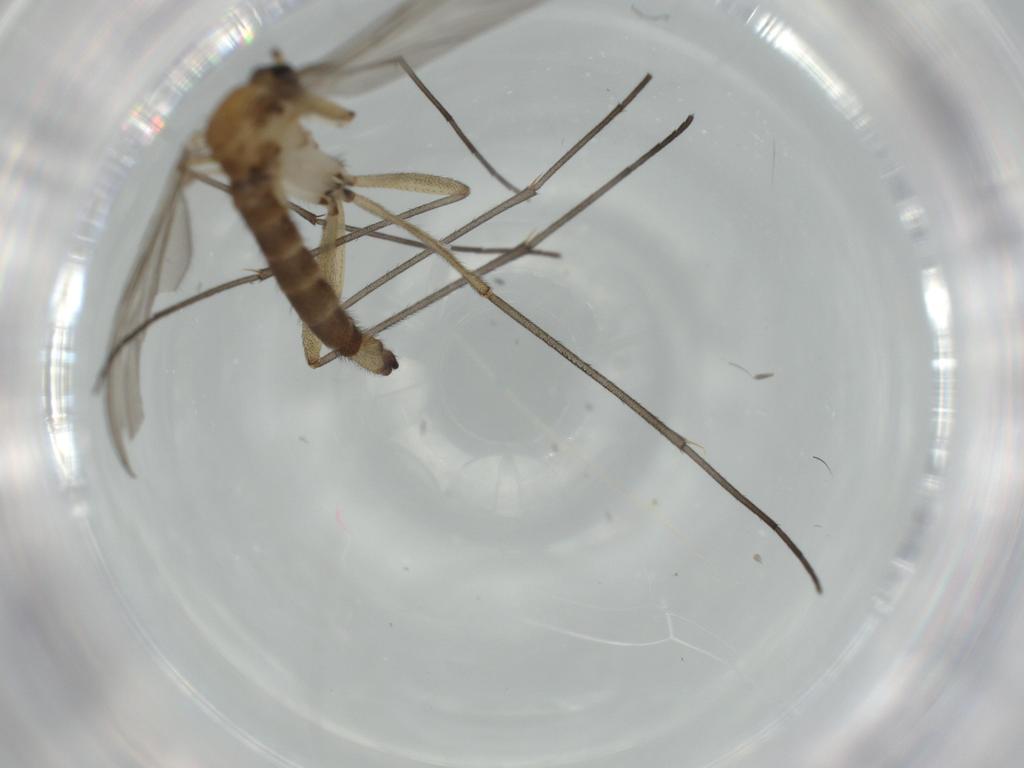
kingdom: Animalia
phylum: Arthropoda
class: Insecta
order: Diptera
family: Sciaridae
